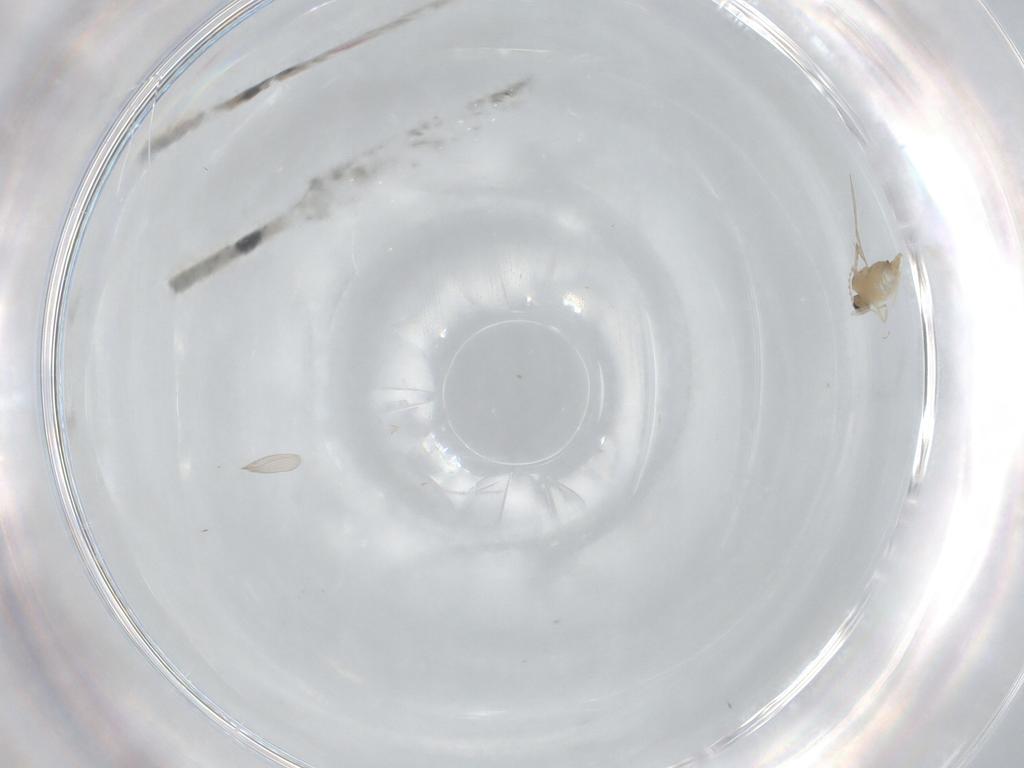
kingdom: Animalia
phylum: Arthropoda
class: Insecta
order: Diptera
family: Cecidomyiidae
